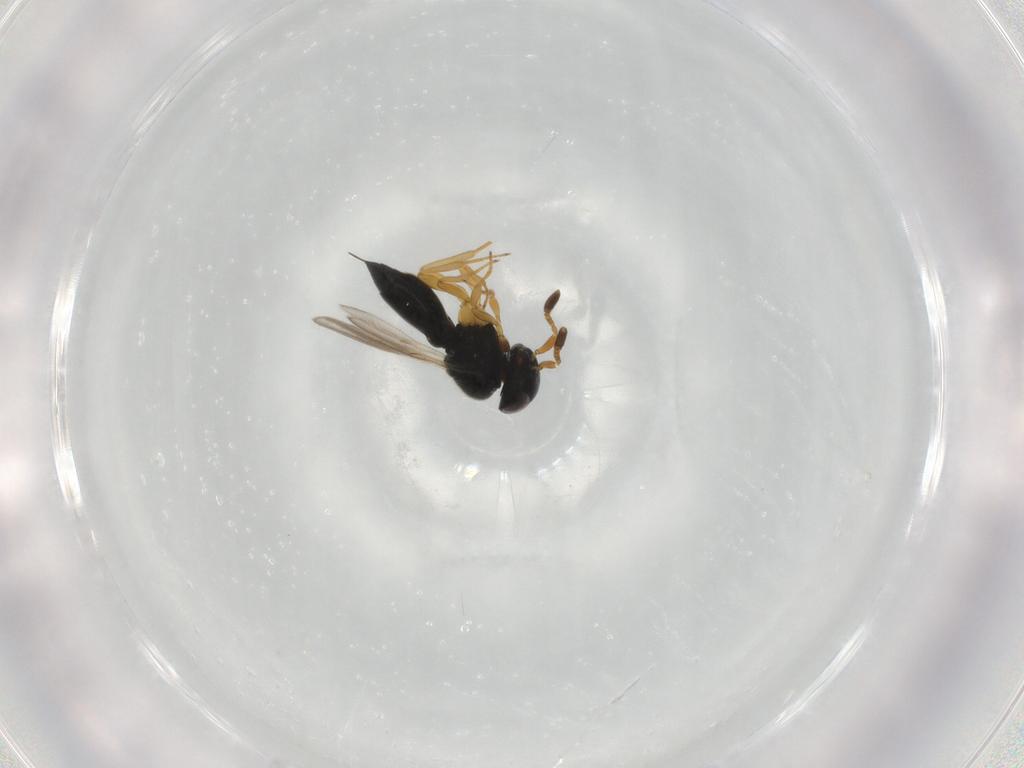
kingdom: Animalia
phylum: Arthropoda
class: Insecta
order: Hymenoptera
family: Scelionidae
